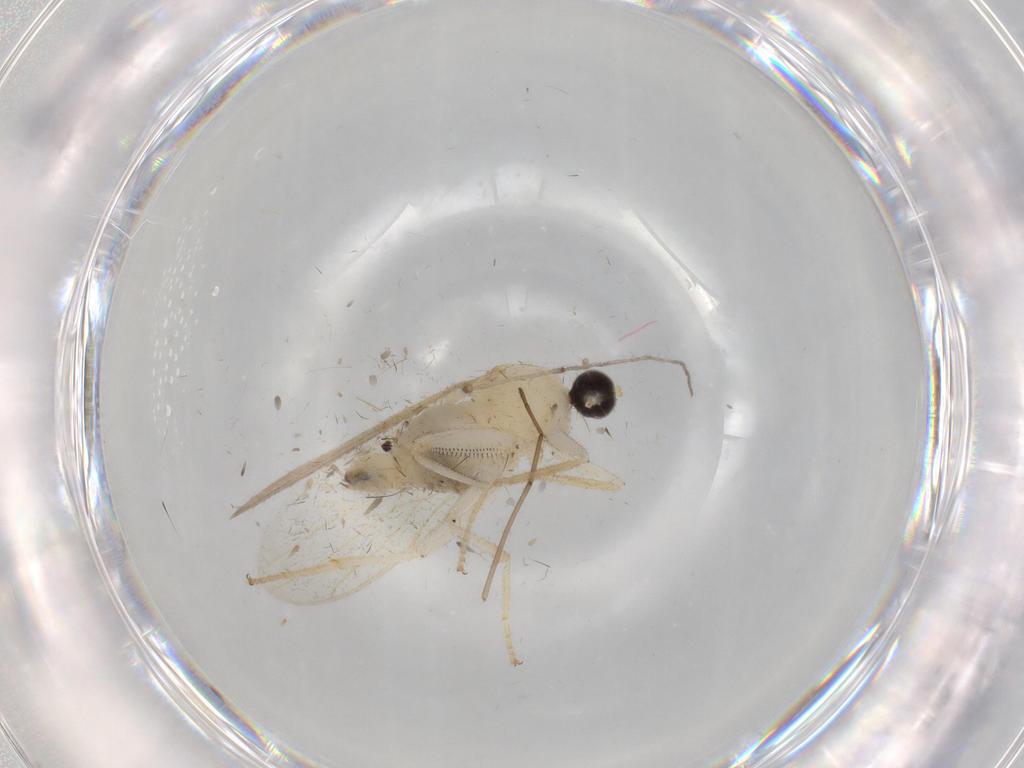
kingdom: Animalia
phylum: Arthropoda
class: Insecta
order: Diptera
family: Hybotidae
